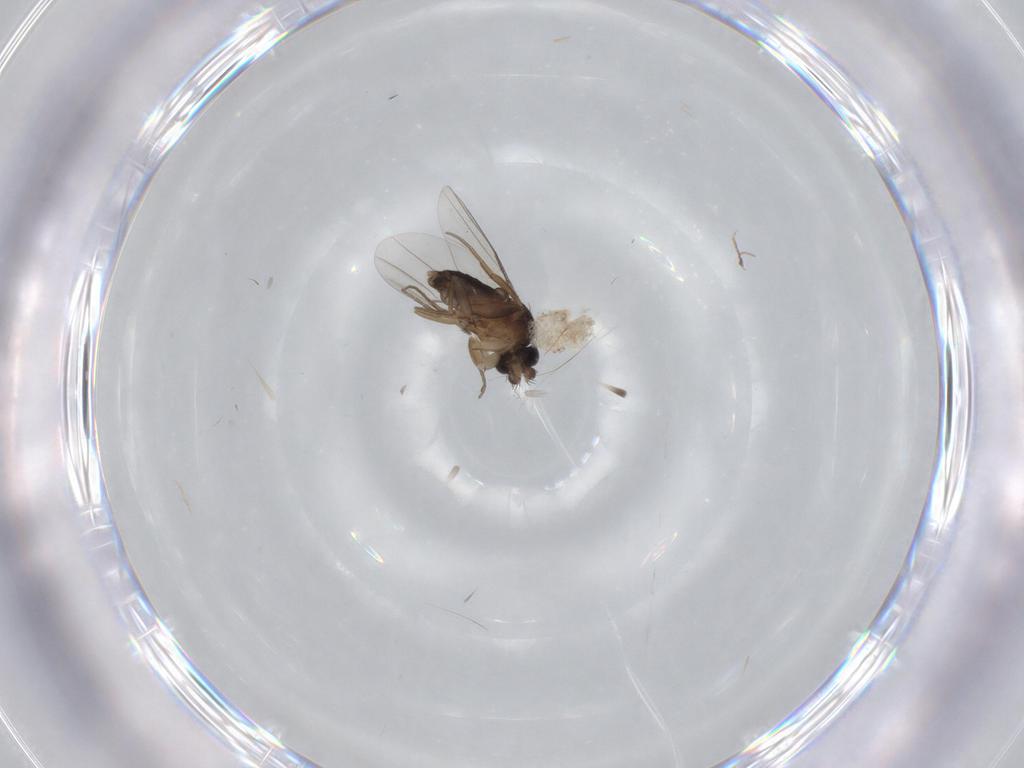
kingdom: Animalia
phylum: Arthropoda
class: Insecta
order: Diptera
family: Phoridae
